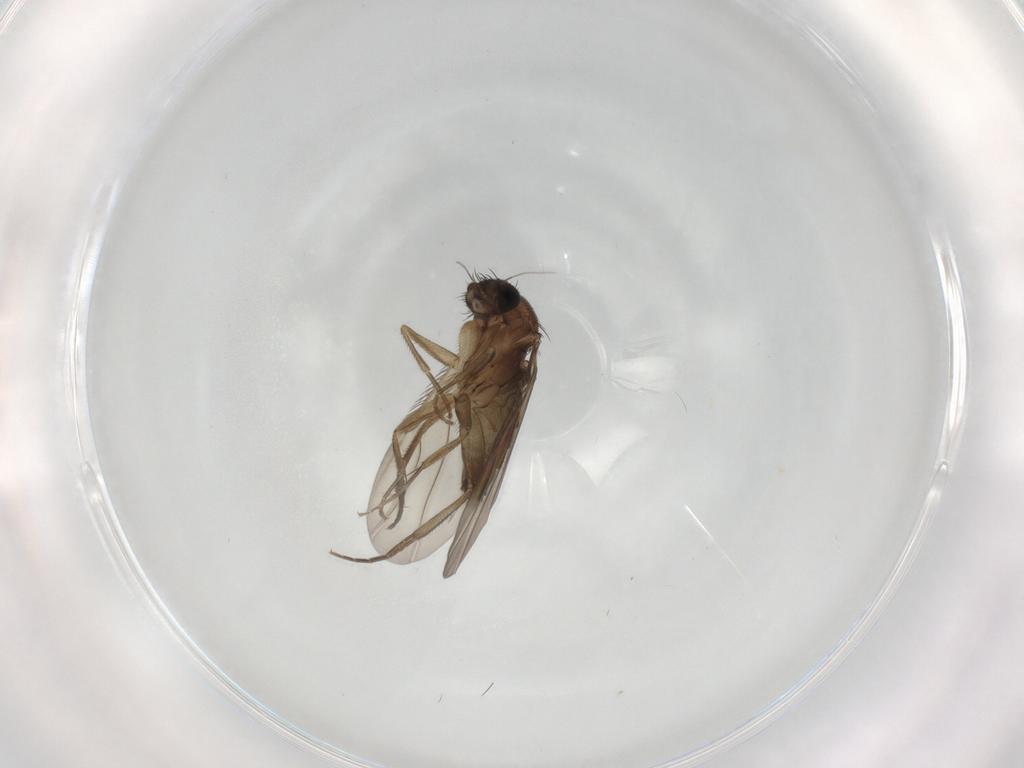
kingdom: Animalia
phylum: Arthropoda
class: Insecta
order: Diptera
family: Phoridae
